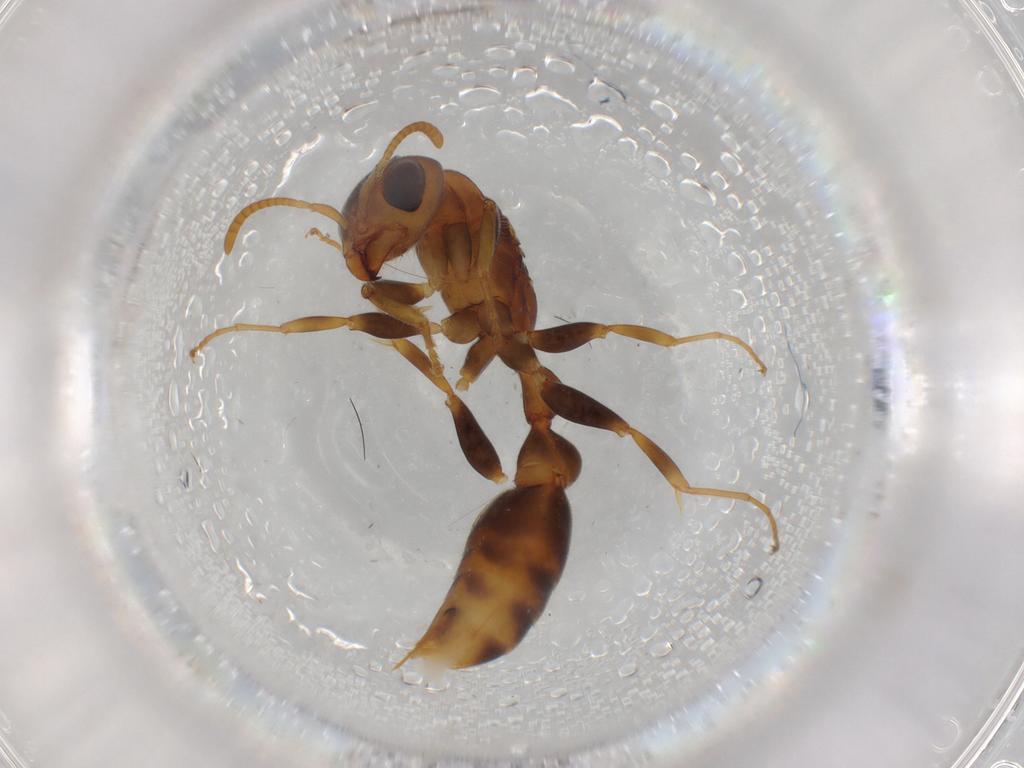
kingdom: Animalia
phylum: Arthropoda
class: Insecta
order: Hymenoptera
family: Formicidae
